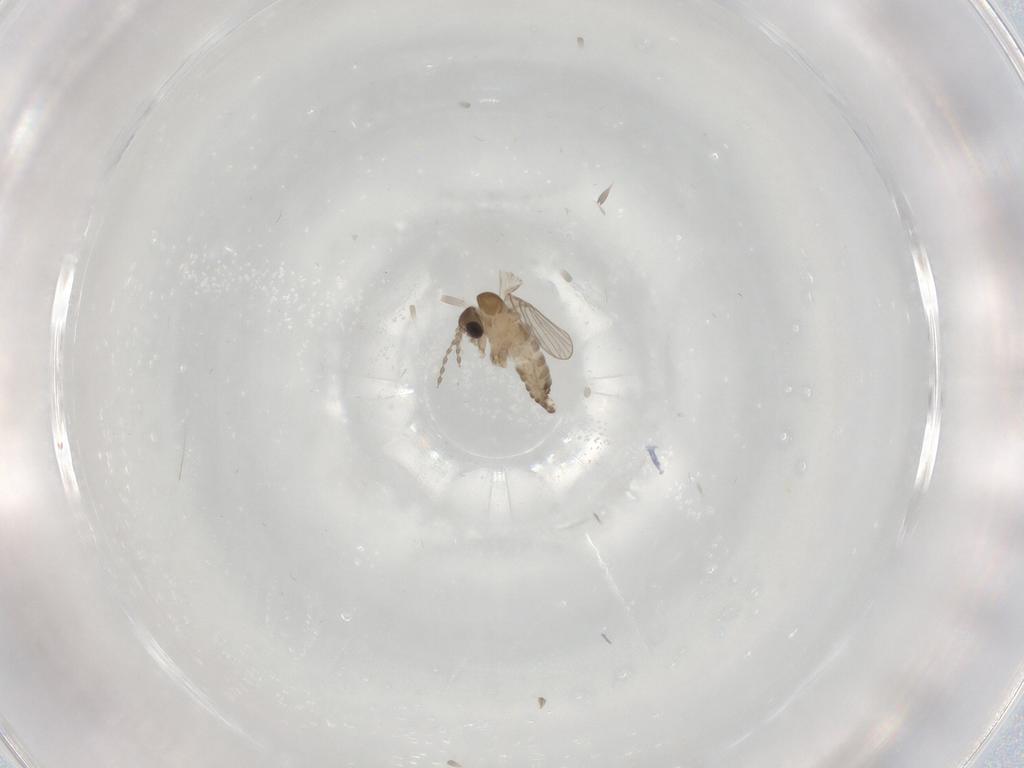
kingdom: Animalia
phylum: Arthropoda
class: Insecta
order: Diptera
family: Psychodidae
